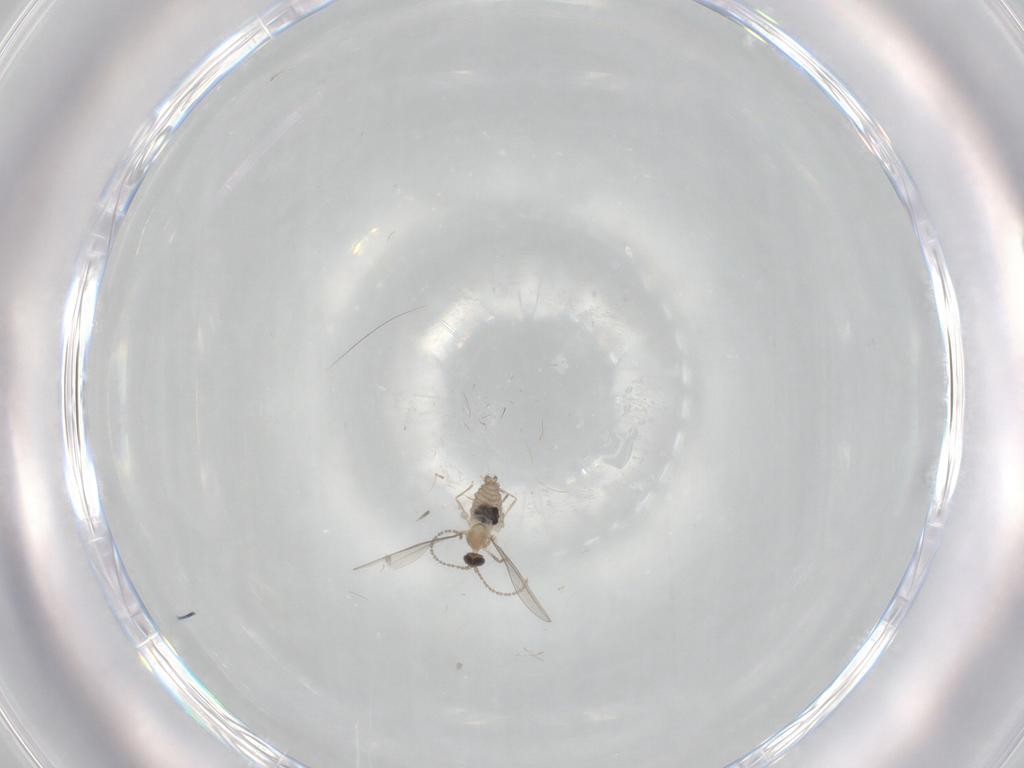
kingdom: Animalia
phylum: Arthropoda
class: Insecta
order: Diptera
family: Cecidomyiidae
